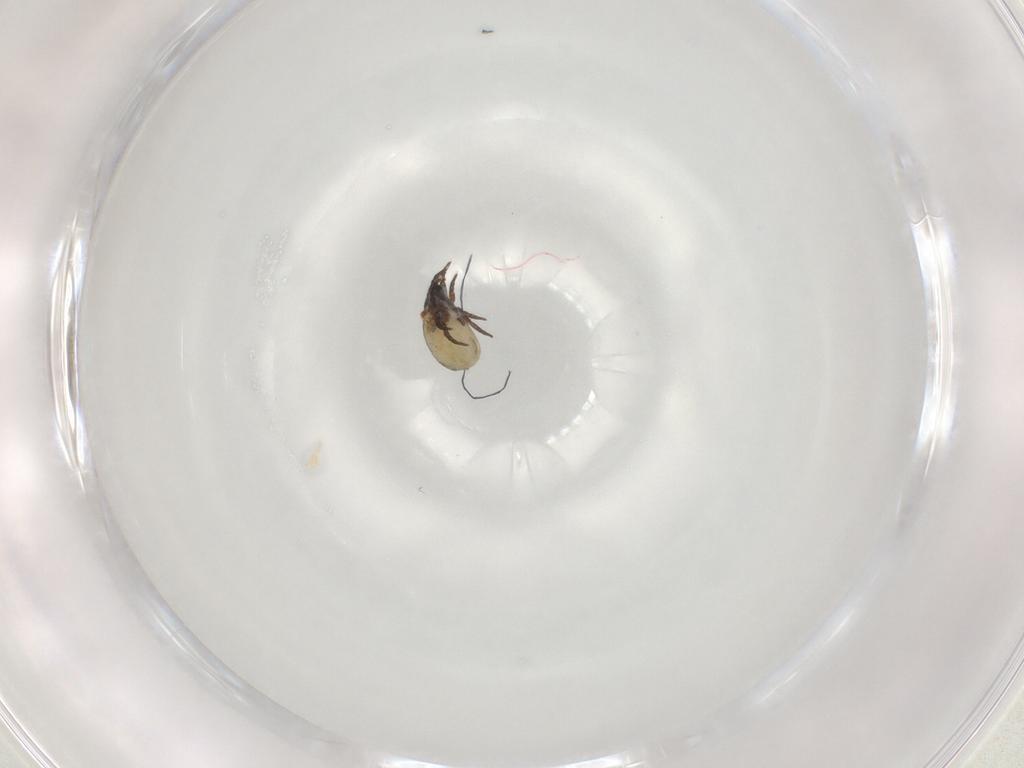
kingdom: Animalia
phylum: Arthropoda
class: Arachnida
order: Sarcoptiformes
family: Crotoniidae
